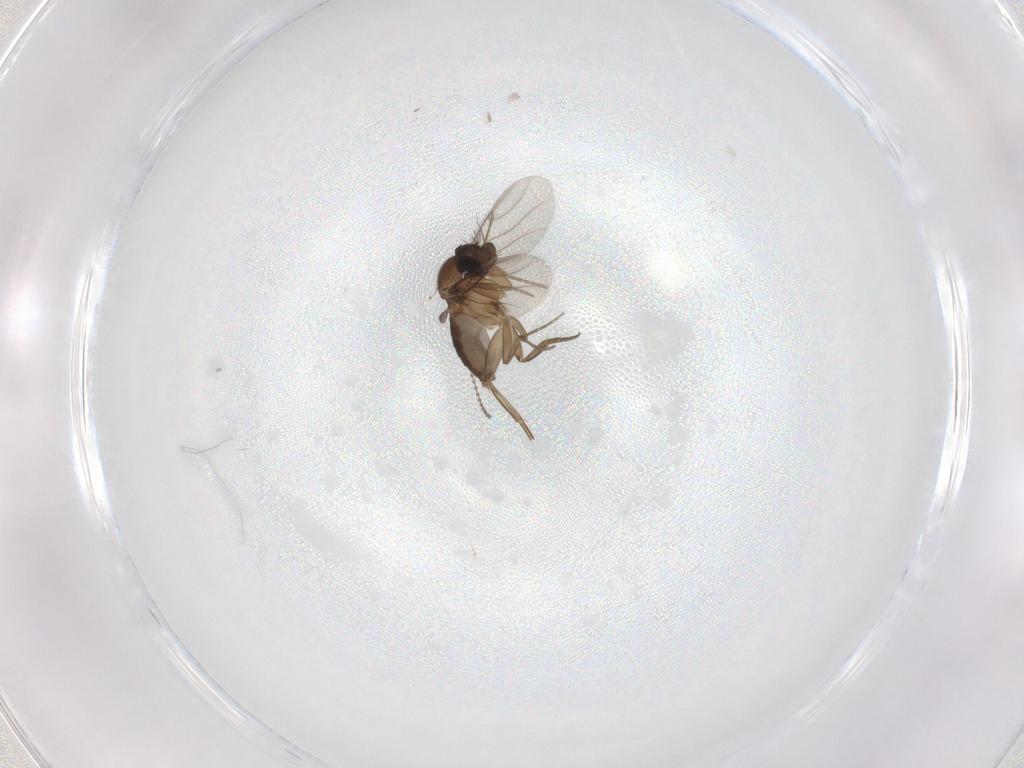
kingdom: Animalia
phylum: Arthropoda
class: Insecta
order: Diptera
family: Phoridae
